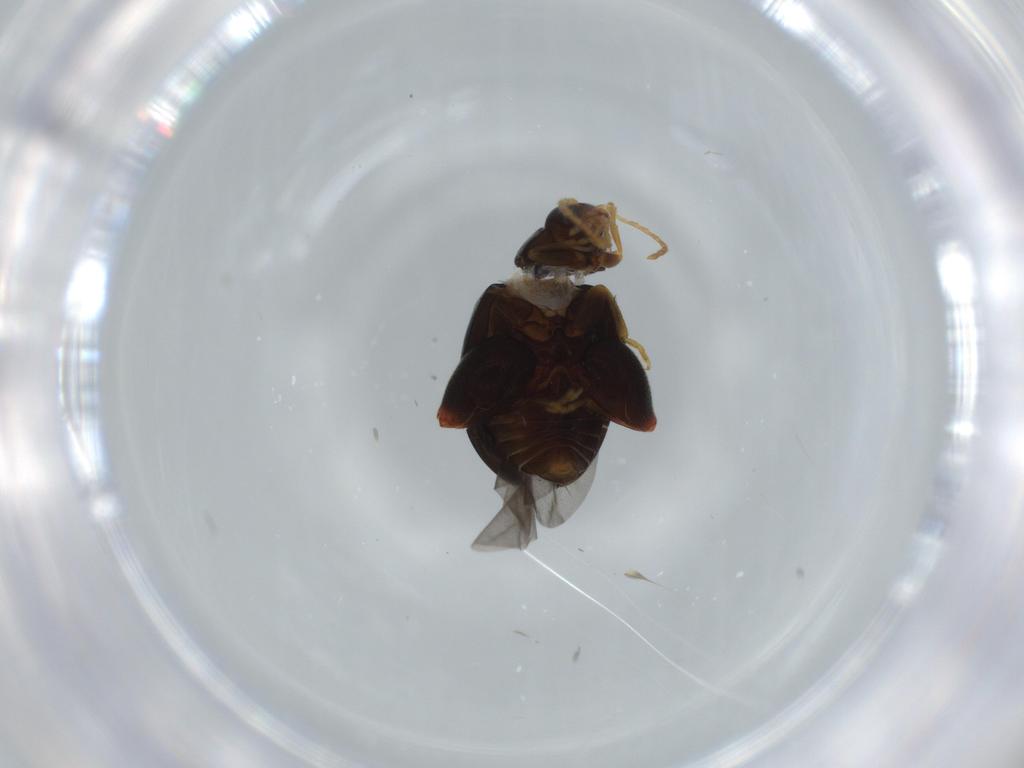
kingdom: Animalia
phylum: Arthropoda
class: Insecta
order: Coleoptera
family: Chrysomelidae
